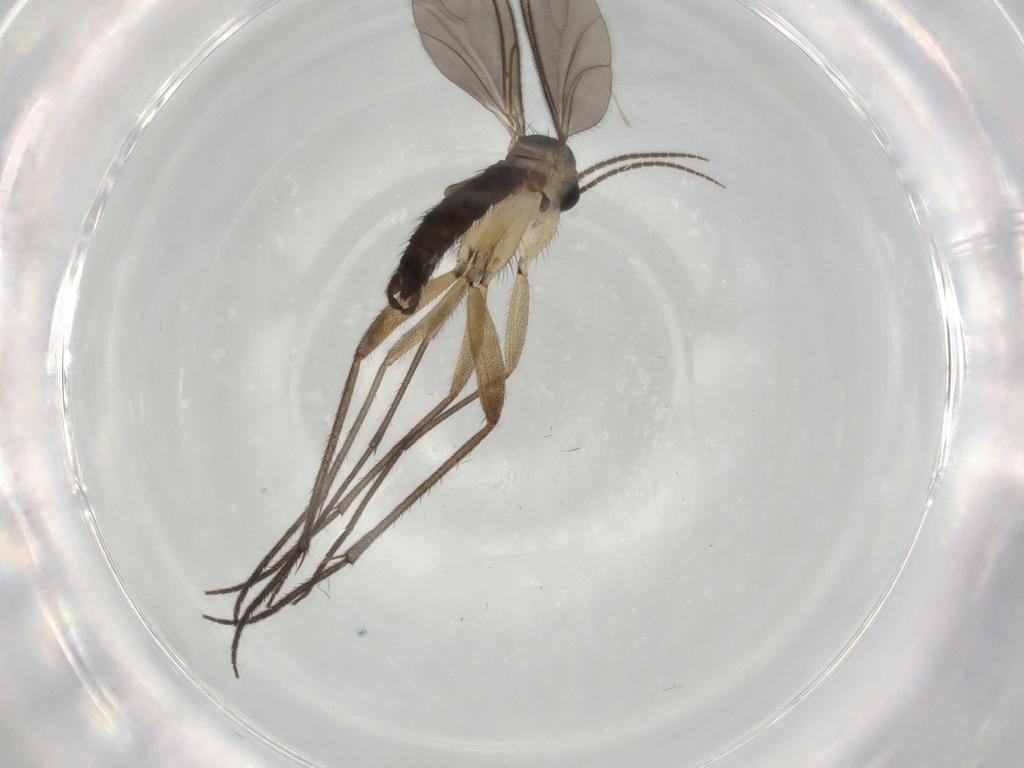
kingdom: Animalia
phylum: Arthropoda
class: Insecta
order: Diptera
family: Sciaridae
